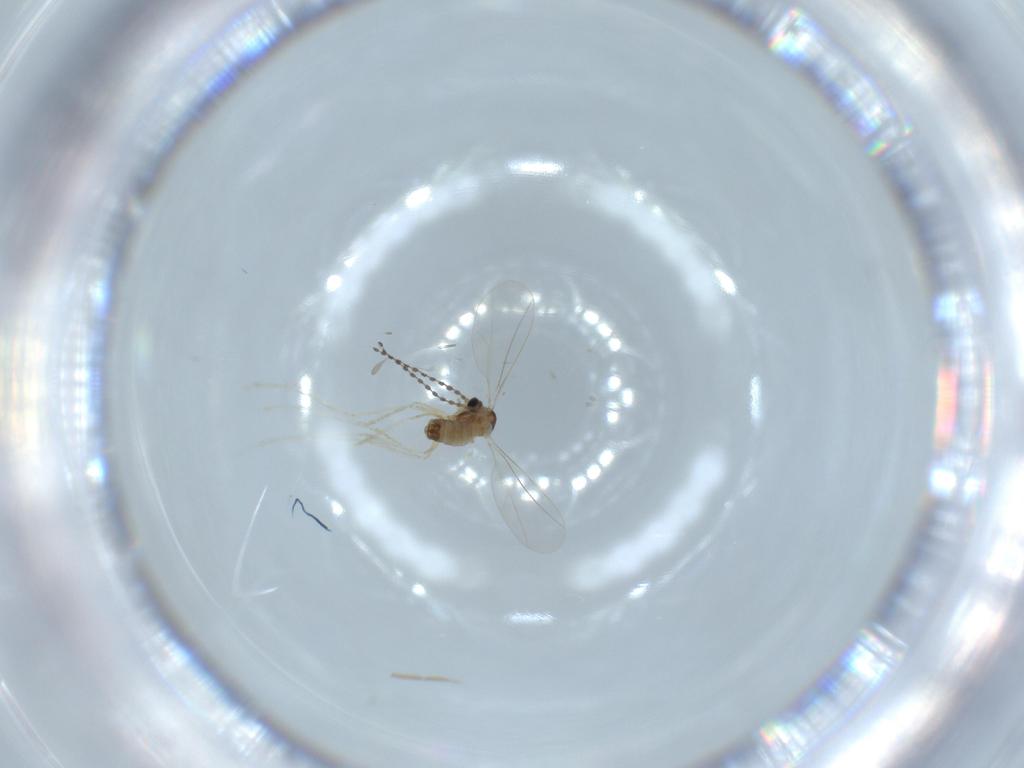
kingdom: Animalia
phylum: Arthropoda
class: Insecta
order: Diptera
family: Cecidomyiidae
